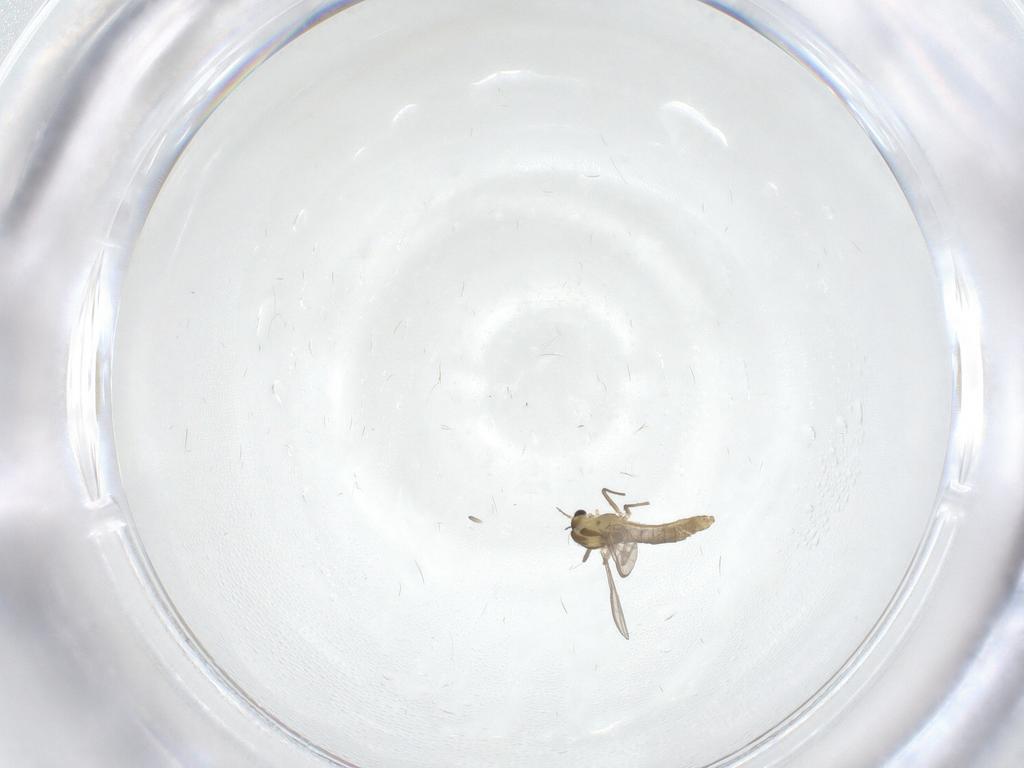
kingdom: Animalia
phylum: Arthropoda
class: Insecta
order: Diptera
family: Chironomidae
